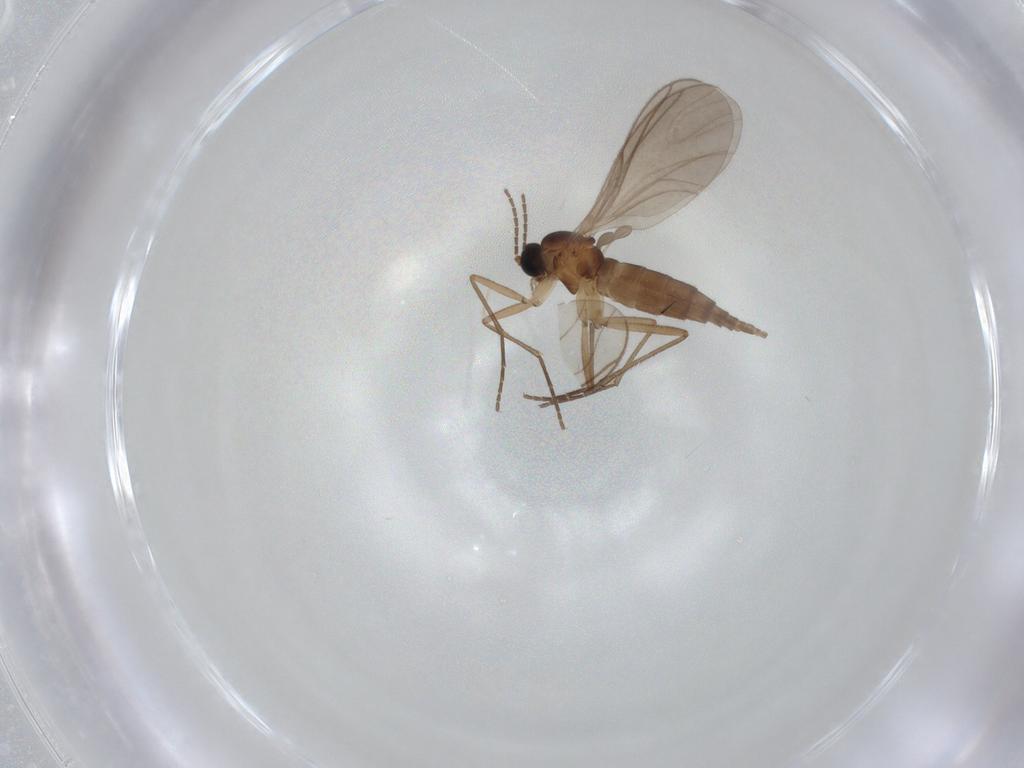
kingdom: Animalia
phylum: Arthropoda
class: Insecta
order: Diptera
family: Sciaridae
